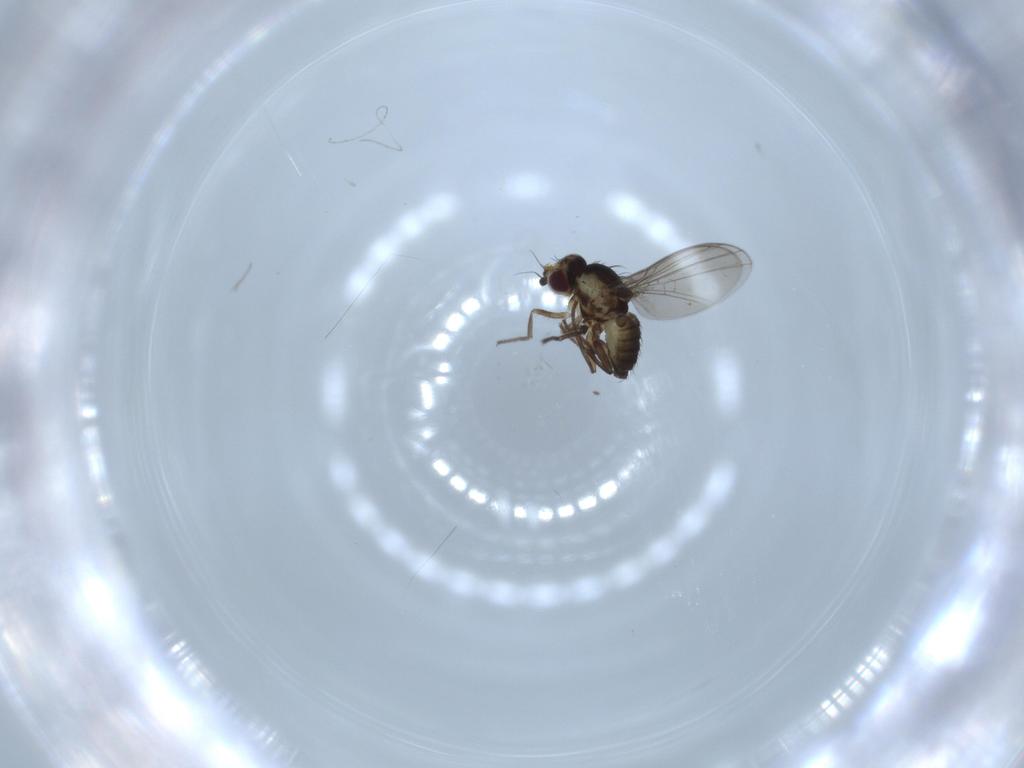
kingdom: Animalia
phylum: Arthropoda
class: Insecta
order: Diptera
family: Agromyzidae
